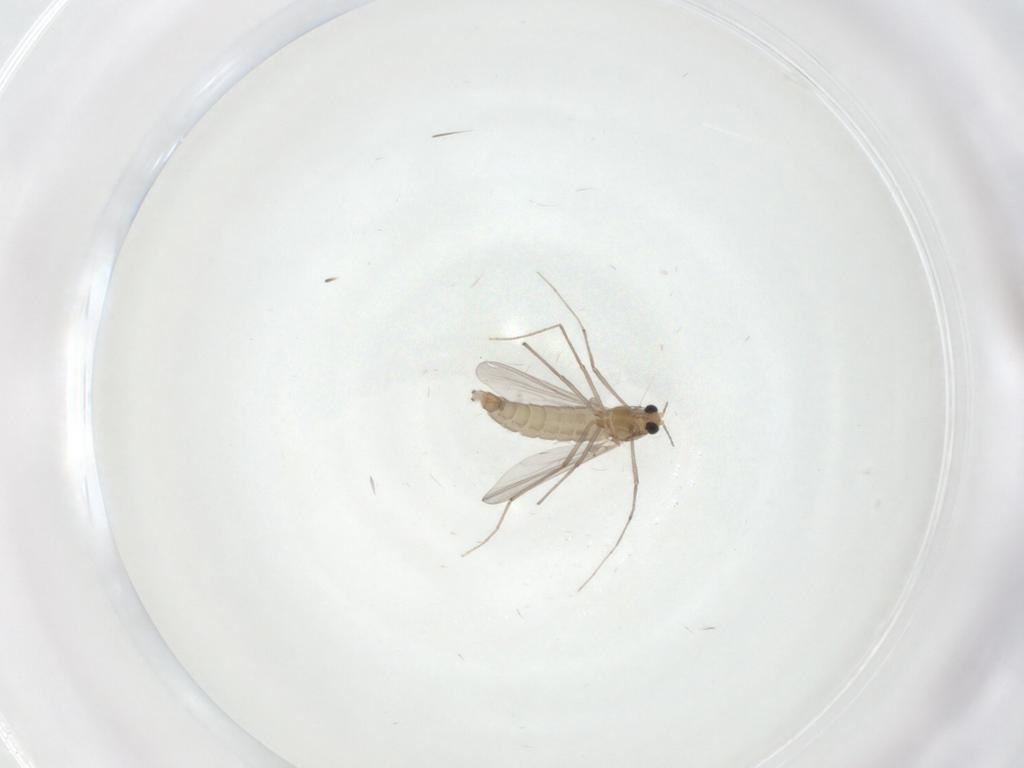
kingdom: Animalia
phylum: Arthropoda
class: Insecta
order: Diptera
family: Chironomidae
